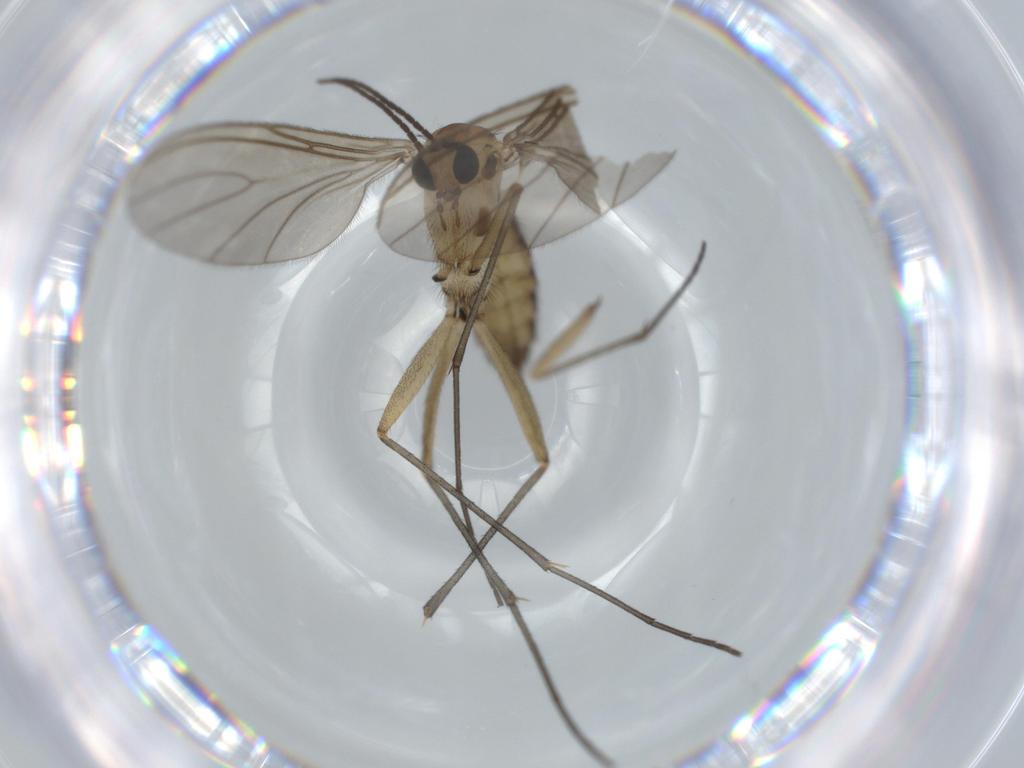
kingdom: Animalia
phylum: Arthropoda
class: Insecta
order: Diptera
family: Sciaridae
